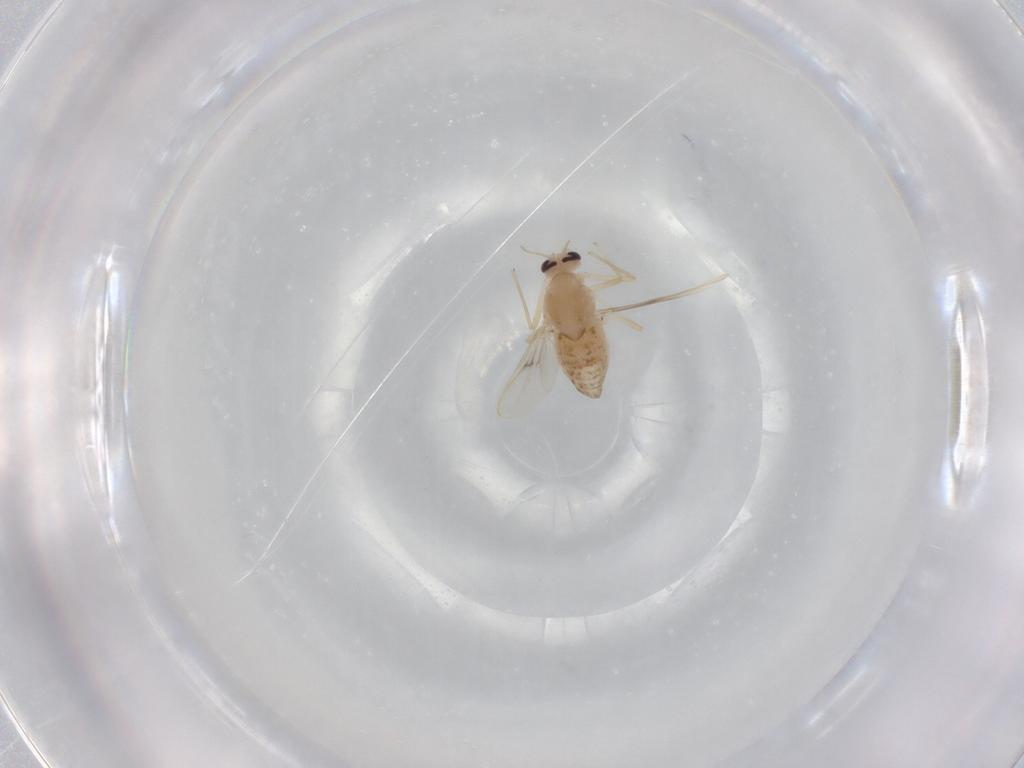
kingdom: Animalia
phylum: Arthropoda
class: Insecta
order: Diptera
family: Chironomidae
